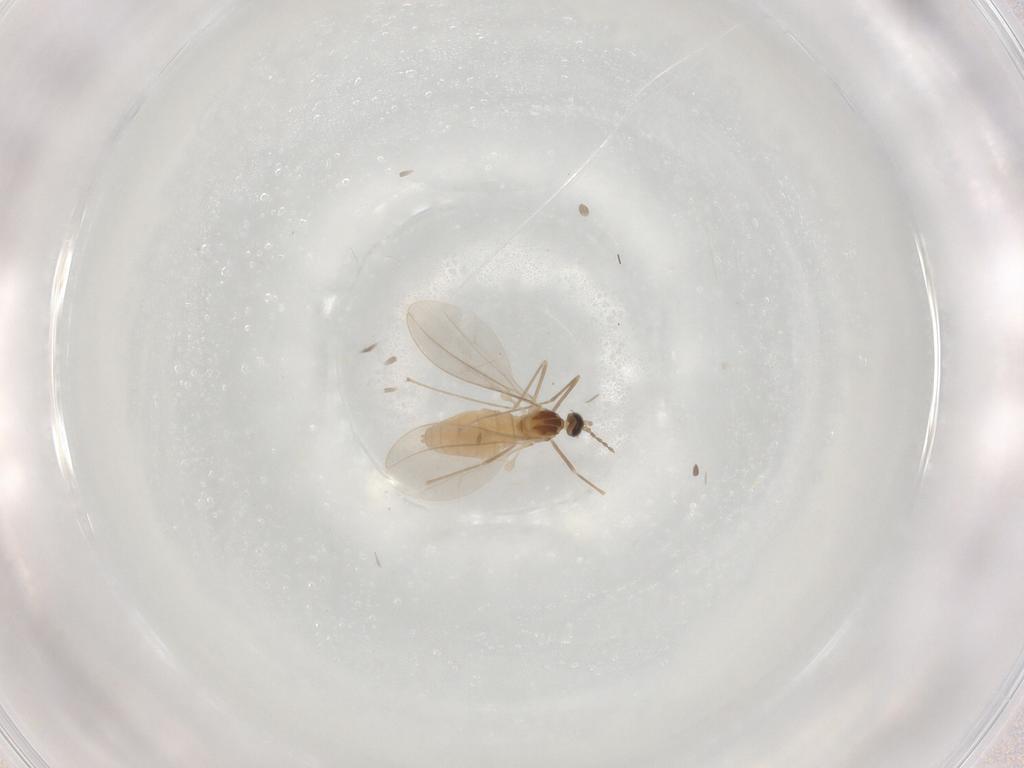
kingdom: Animalia
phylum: Arthropoda
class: Insecta
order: Diptera
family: Cecidomyiidae
